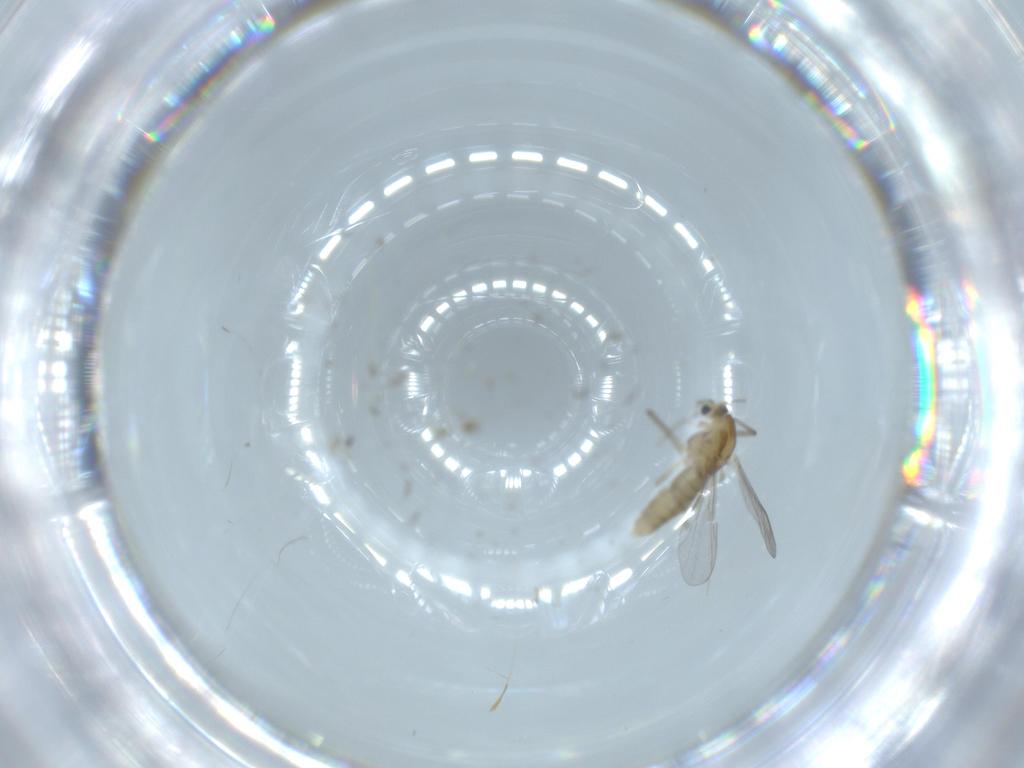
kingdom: Animalia
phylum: Arthropoda
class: Insecta
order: Diptera
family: Chironomidae
